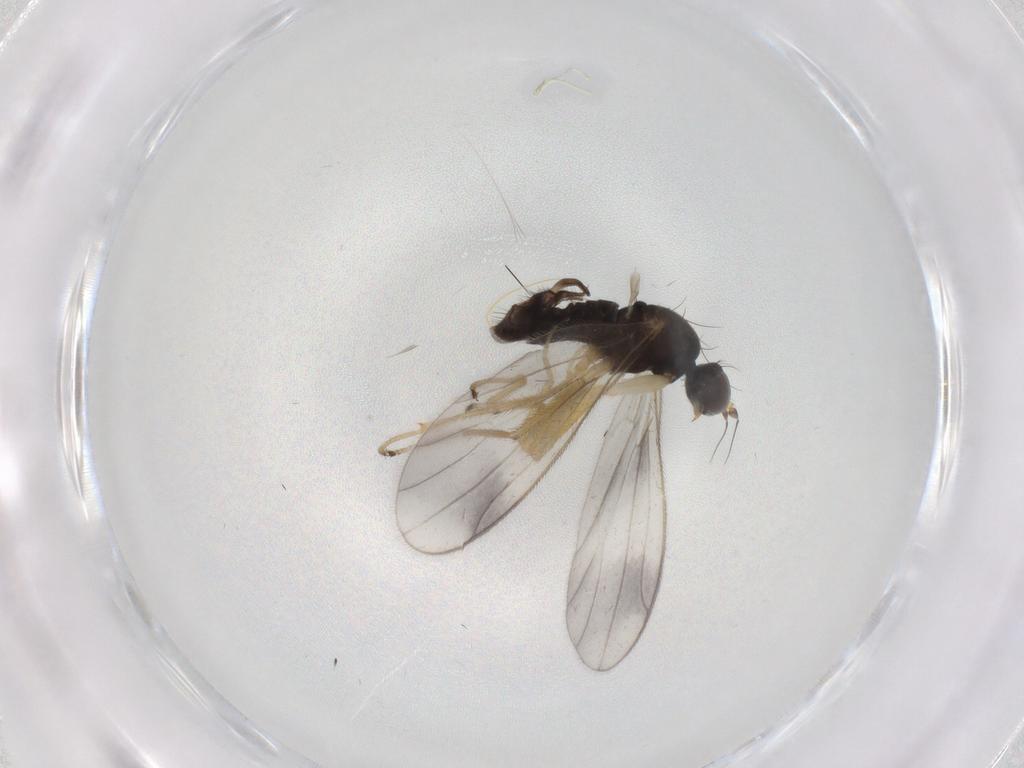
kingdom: Animalia
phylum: Arthropoda
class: Insecta
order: Diptera
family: Empididae
